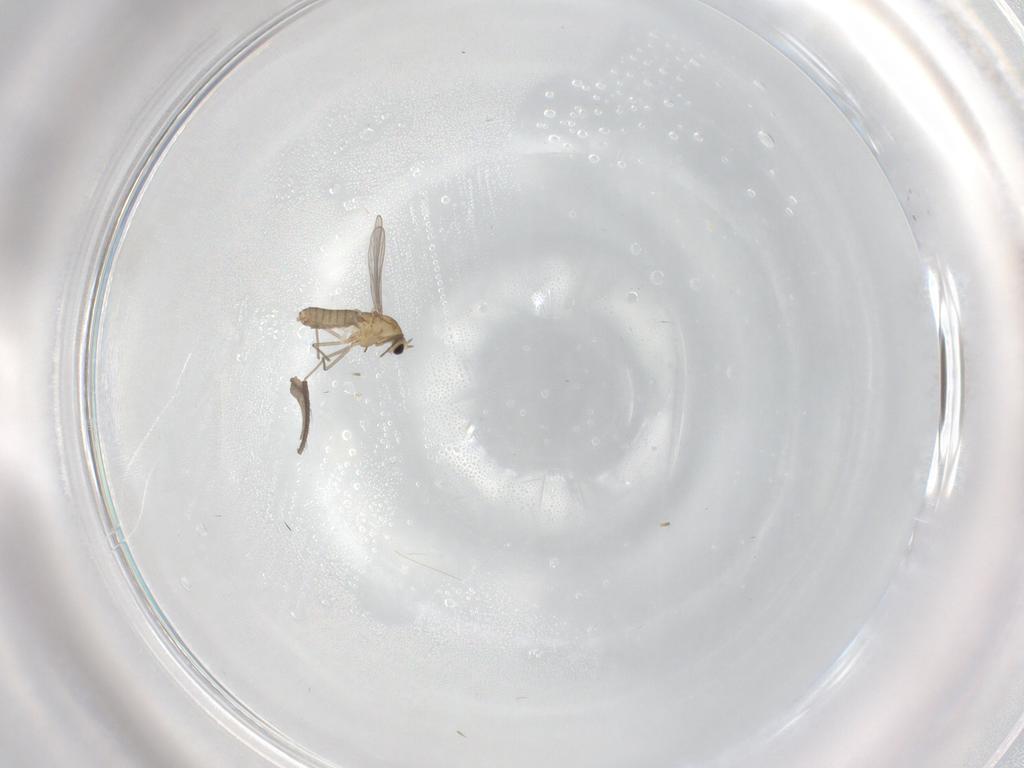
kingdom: Animalia
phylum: Arthropoda
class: Insecta
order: Diptera
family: Chironomidae
